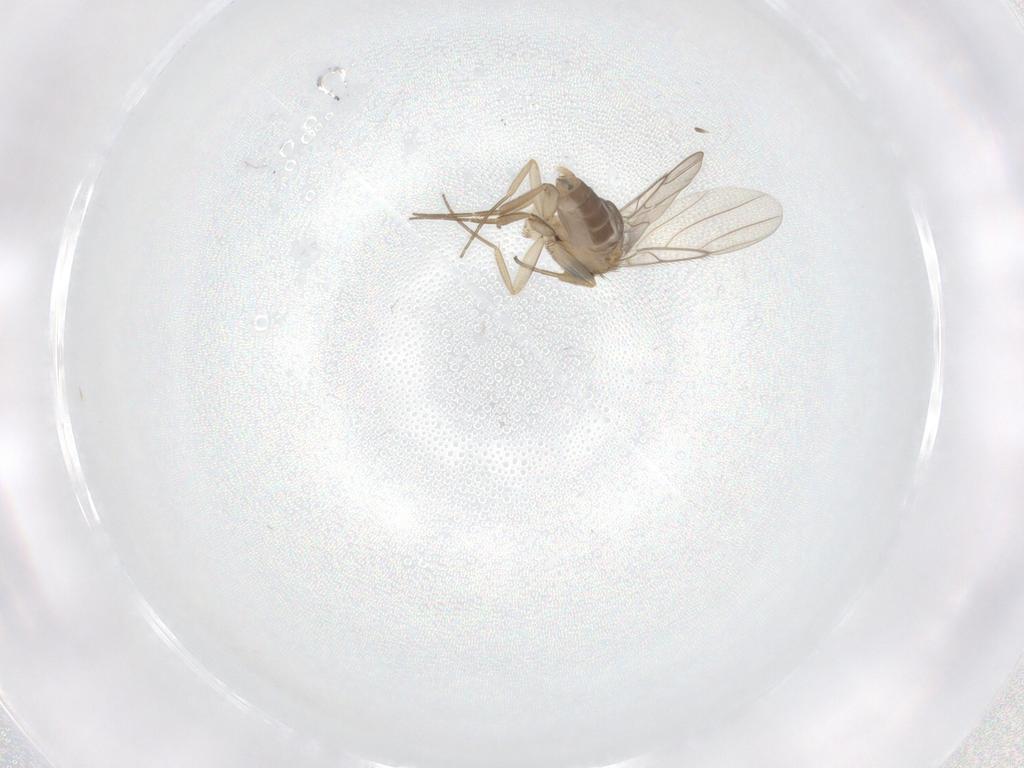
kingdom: Animalia
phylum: Arthropoda
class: Insecta
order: Diptera
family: Phoridae
